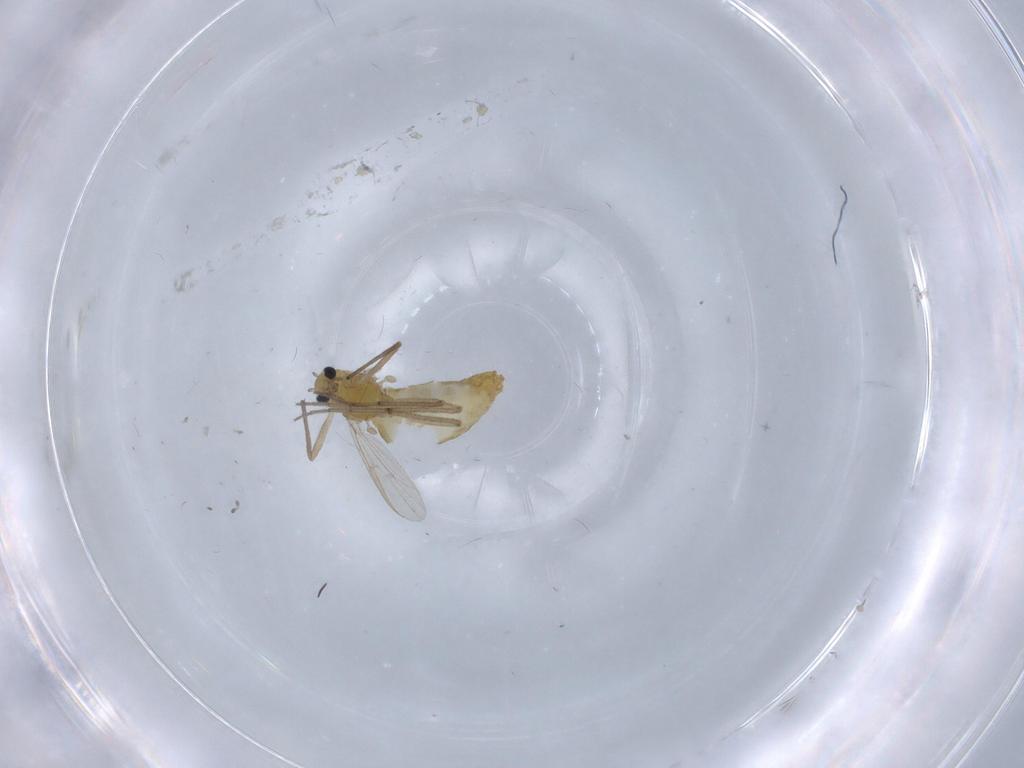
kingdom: Animalia
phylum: Arthropoda
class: Insecta
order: Diptera
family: Chironomidae
